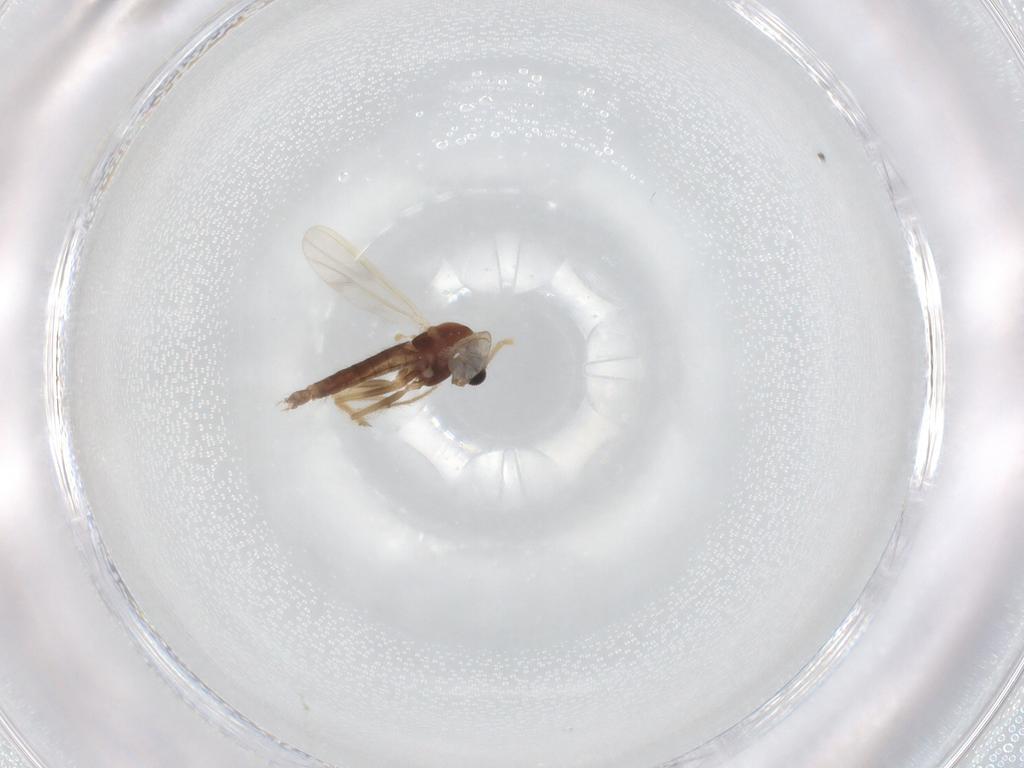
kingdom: Animalia
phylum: Arthropoda
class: Insecta
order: Diptera
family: Chironomidae
